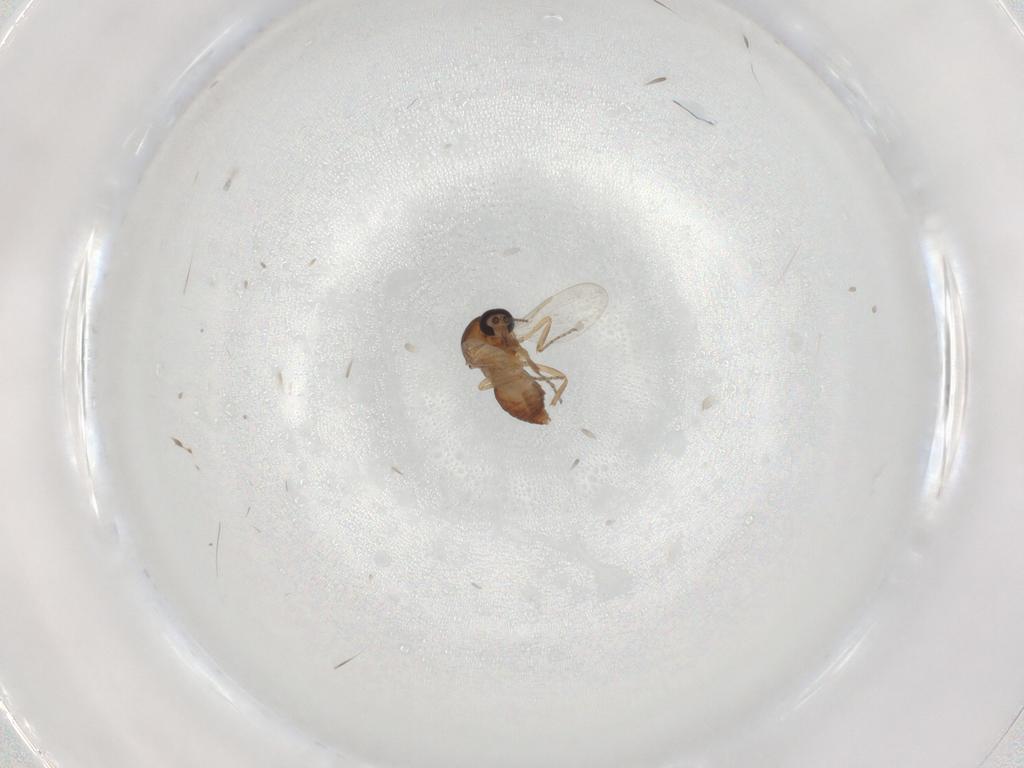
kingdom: Animalia
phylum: Arthropoda
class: Insecta
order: Diptera
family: Ceratopogonidae
